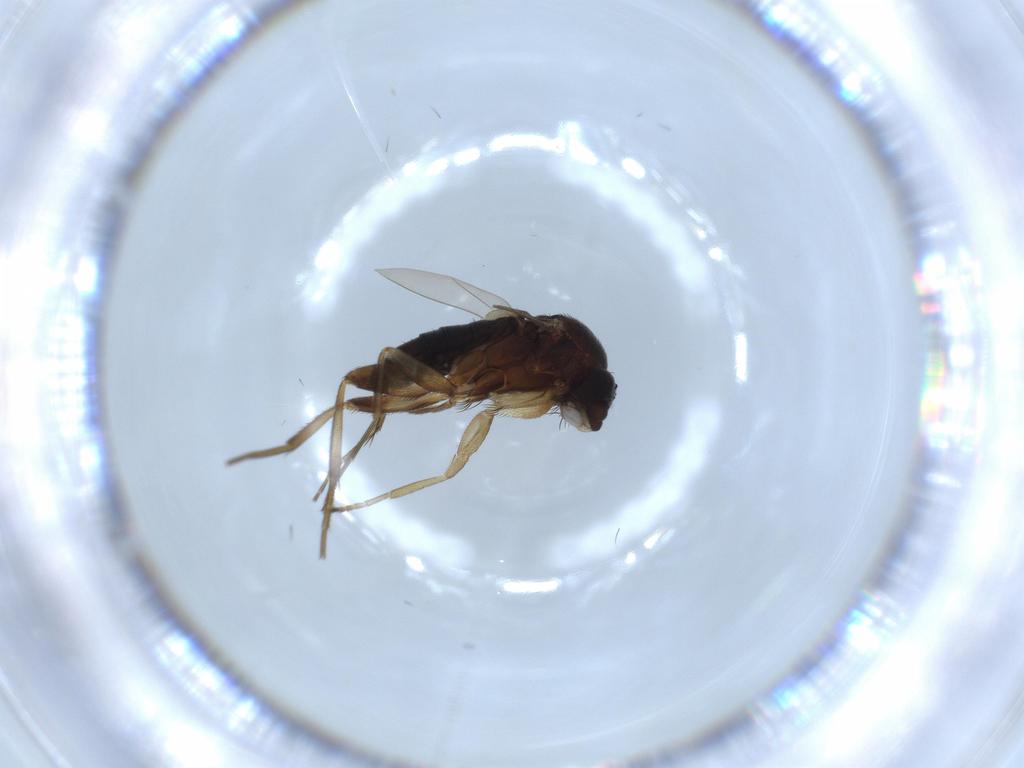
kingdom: Animalia
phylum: Arthropoda
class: Insecta
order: Diptera
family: Phoridae
